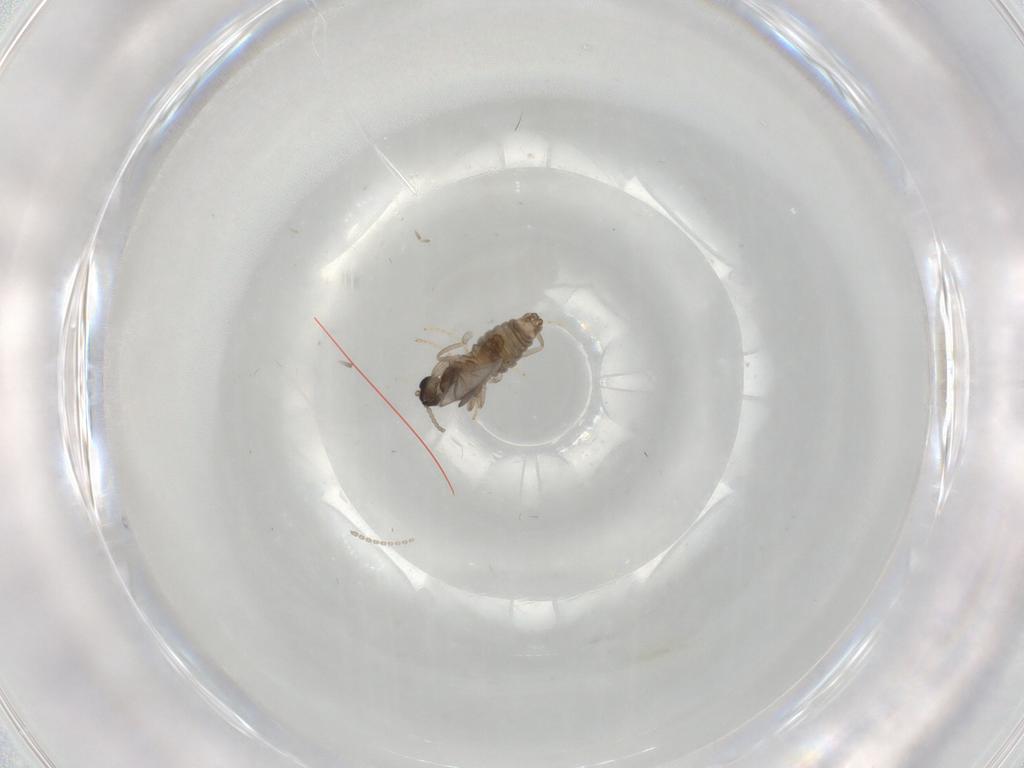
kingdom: Animalia
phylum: Arthropoda
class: Insecta
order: Diptera
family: Cecidomyiidae
